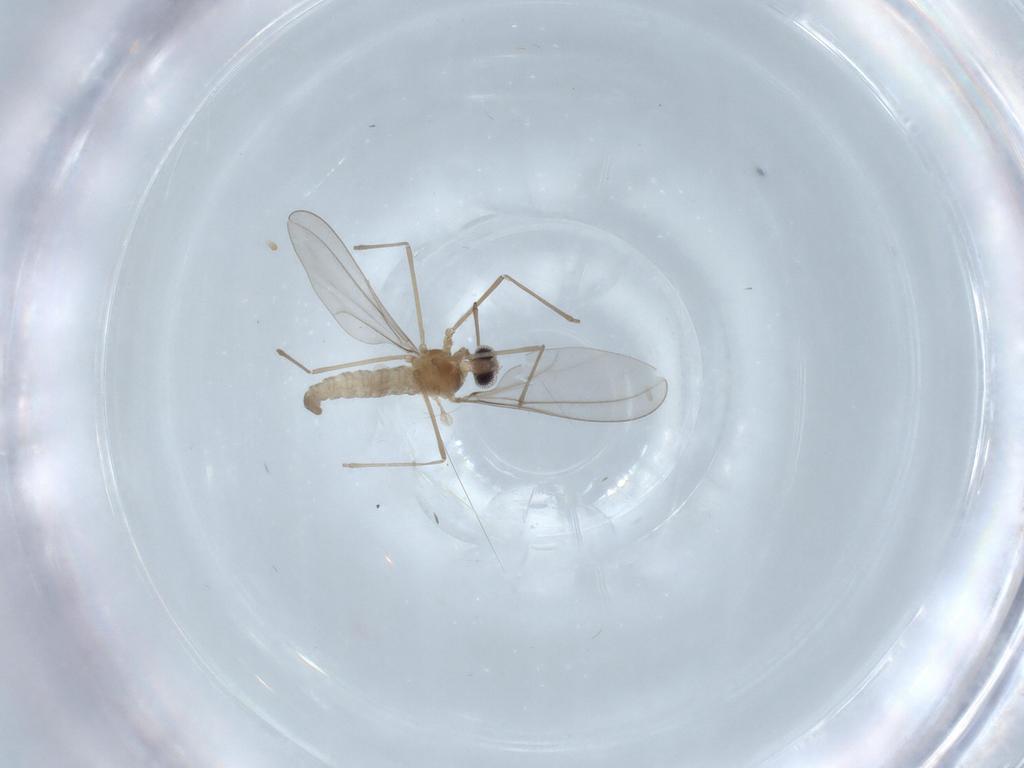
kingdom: Animalia
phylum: Arthropoda
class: Insecta
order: Diptera
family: Cecidomyiidae
